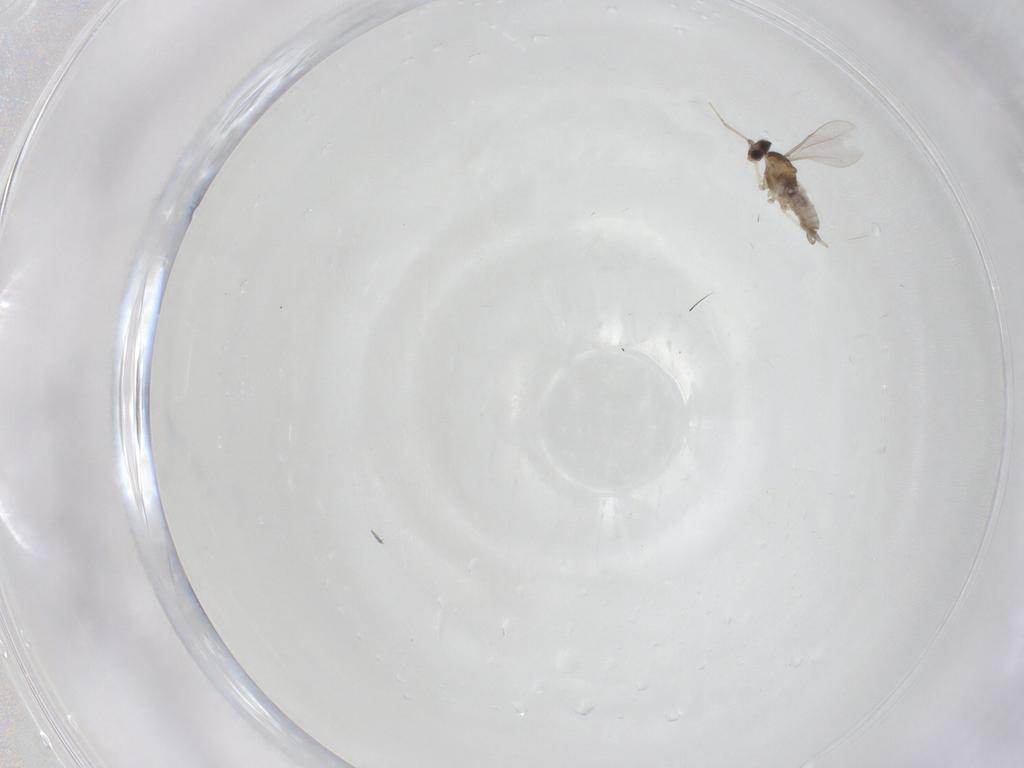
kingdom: Animalia
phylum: Arthropoda
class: Insecta
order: Diptera
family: Cecidomyiidae
